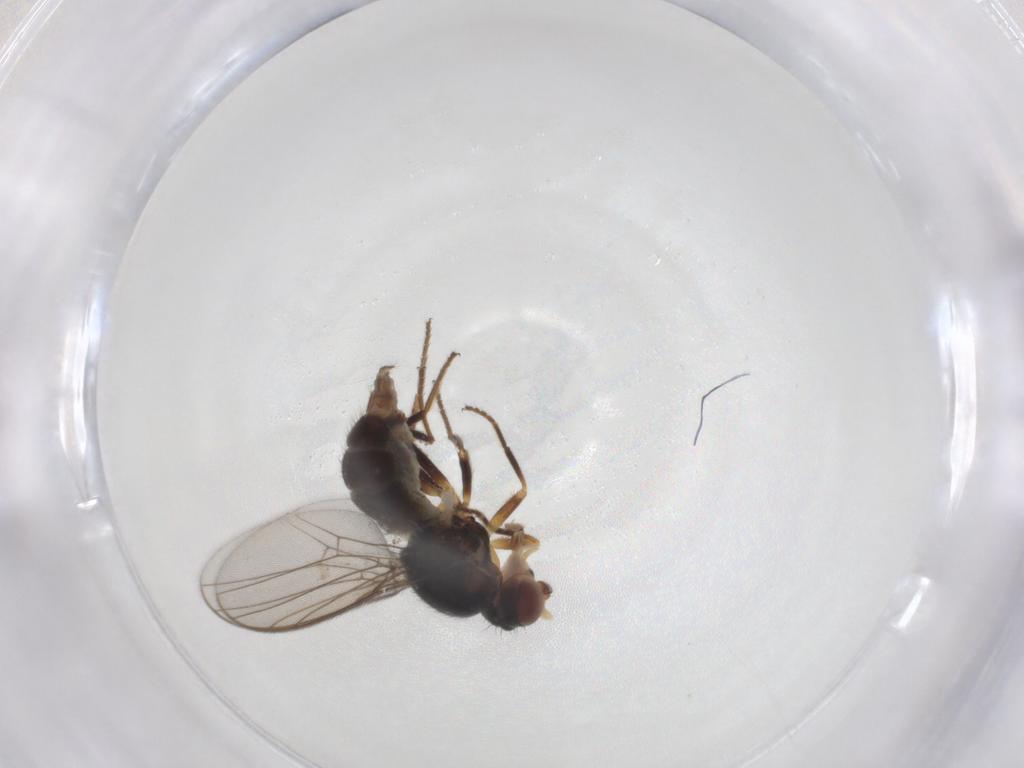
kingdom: Animalia
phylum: Arthropoda
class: Insecta
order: Diptera
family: Chloropidae
